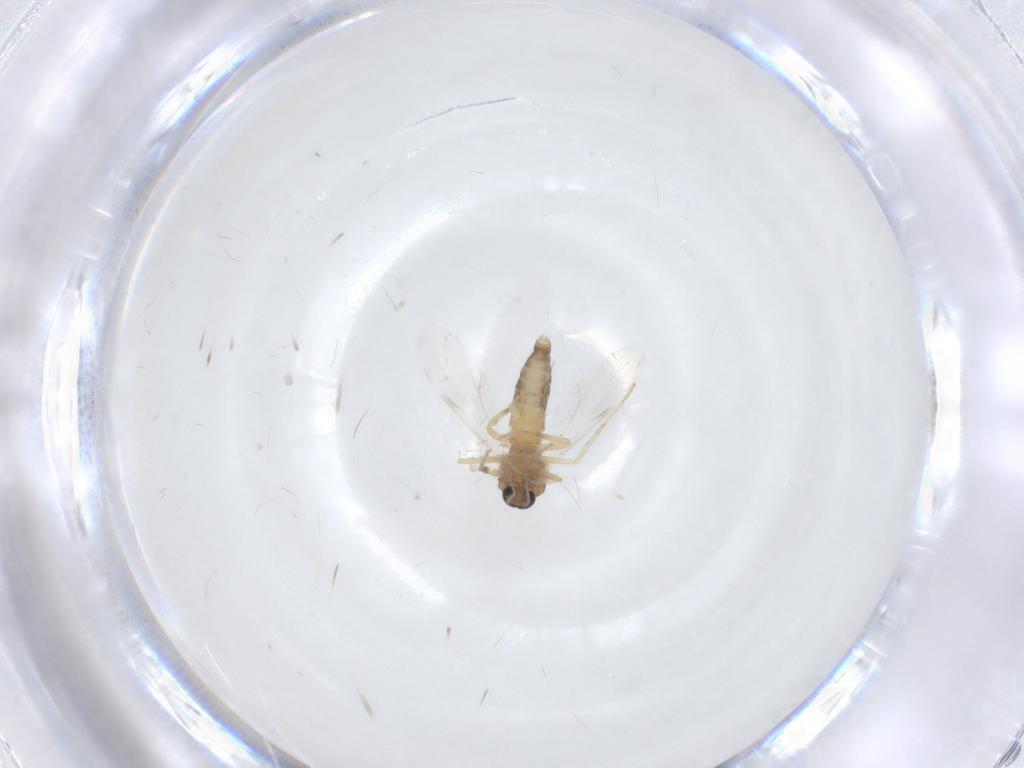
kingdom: Animalia
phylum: Arthropoda
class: Insecta
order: Diptera
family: Ceratopogonidae
